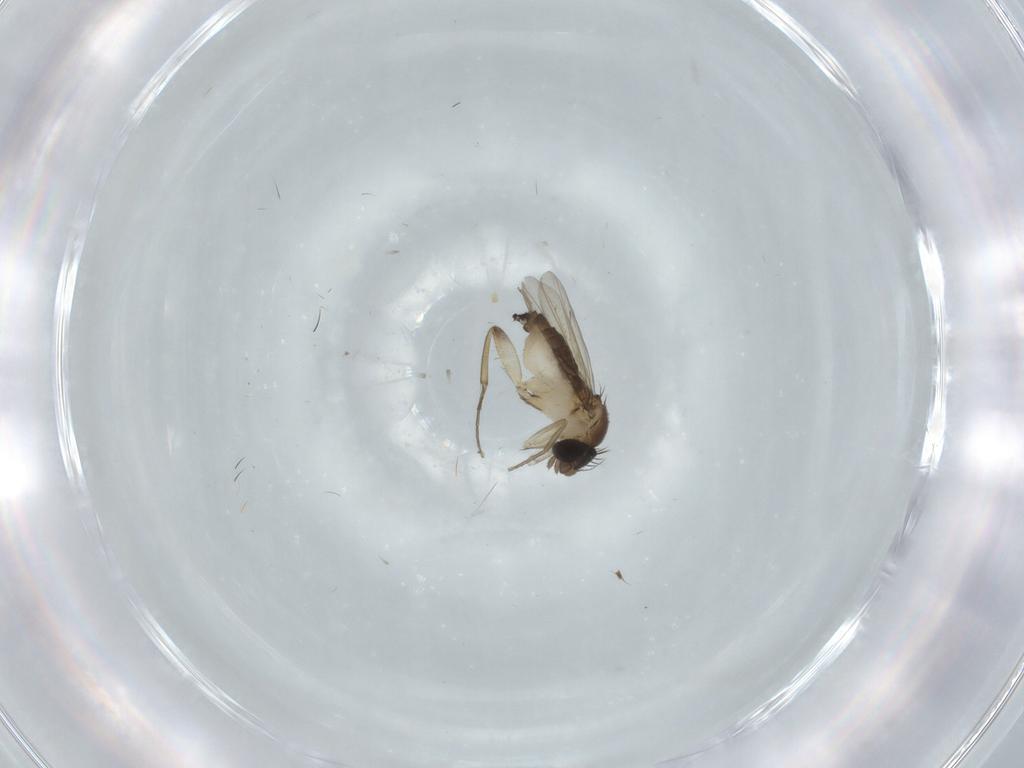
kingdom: Animalia
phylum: Arthropoda
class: Insecta
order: Diptera
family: Phoridae
